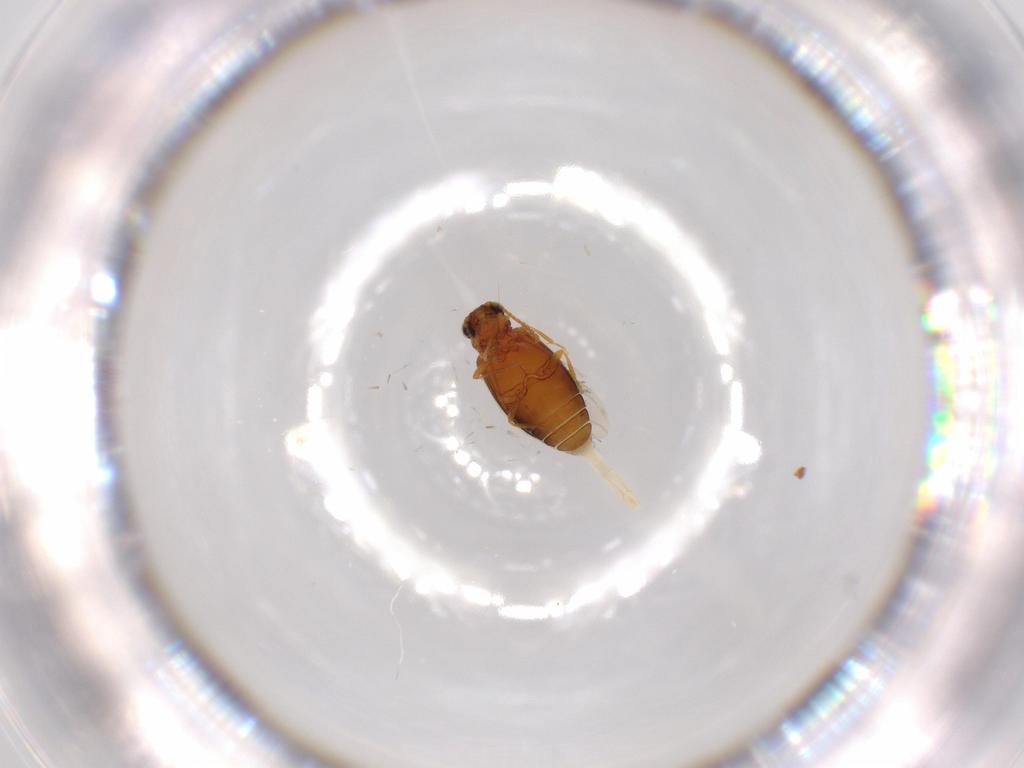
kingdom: Animalia
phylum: Arthropoda
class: Insecta
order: Coleoptera
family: Aderidae
